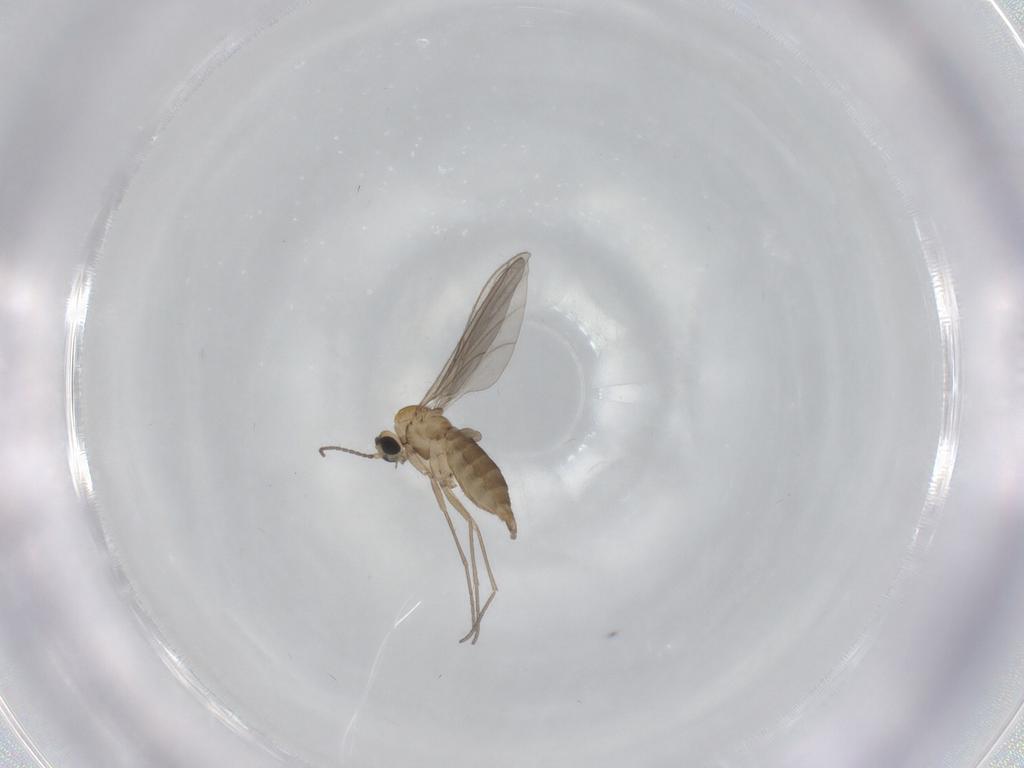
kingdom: Animalia
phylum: Arthropoda
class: Insecta
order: Diptera
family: Sciaridae
